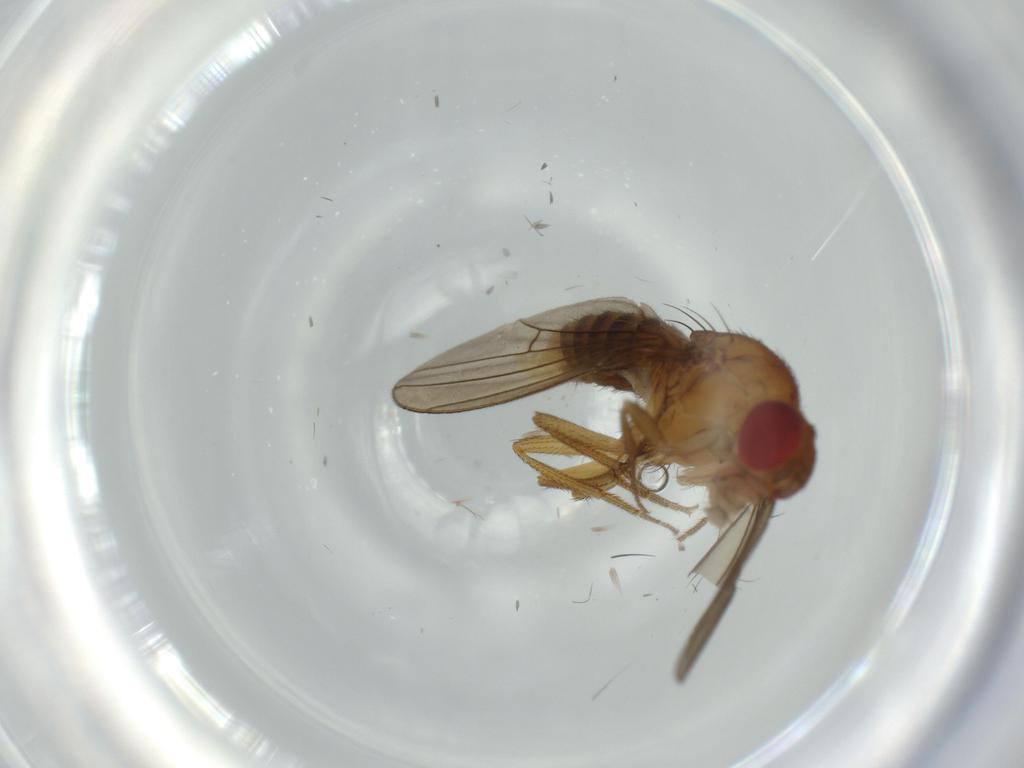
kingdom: Animalia
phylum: Arthropoda
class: Insecta
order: Diptera
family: Drosophilidae
